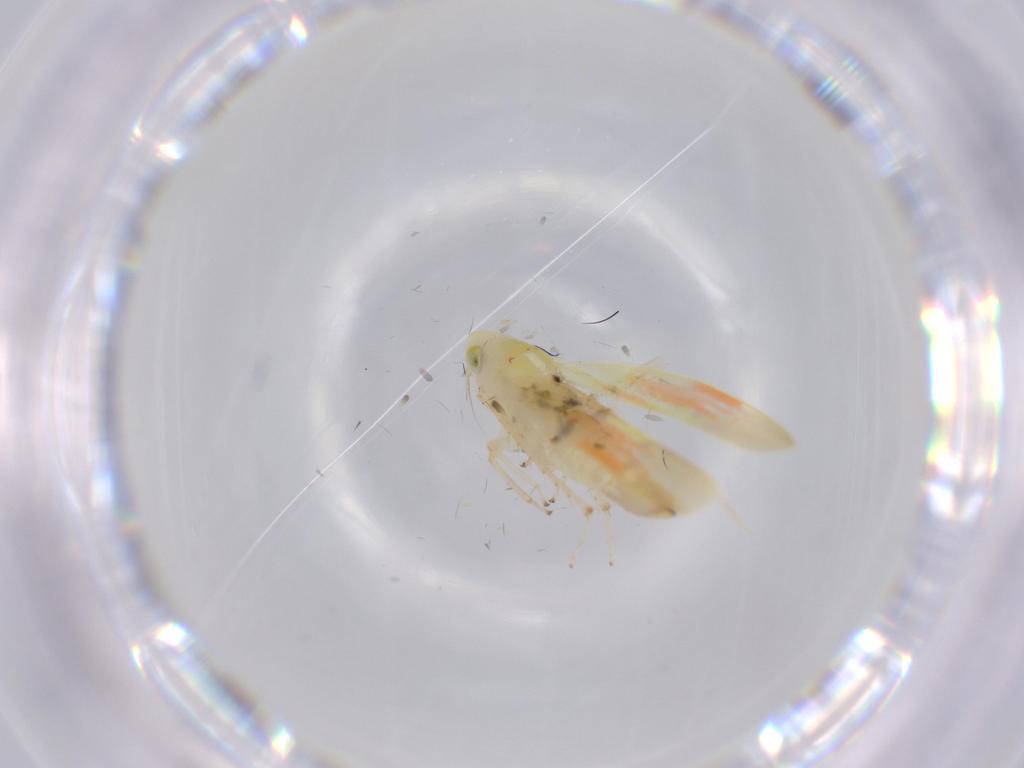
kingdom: Animalia
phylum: Arthropoda
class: Insecta
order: Hemiptera
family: Cicadellidae
